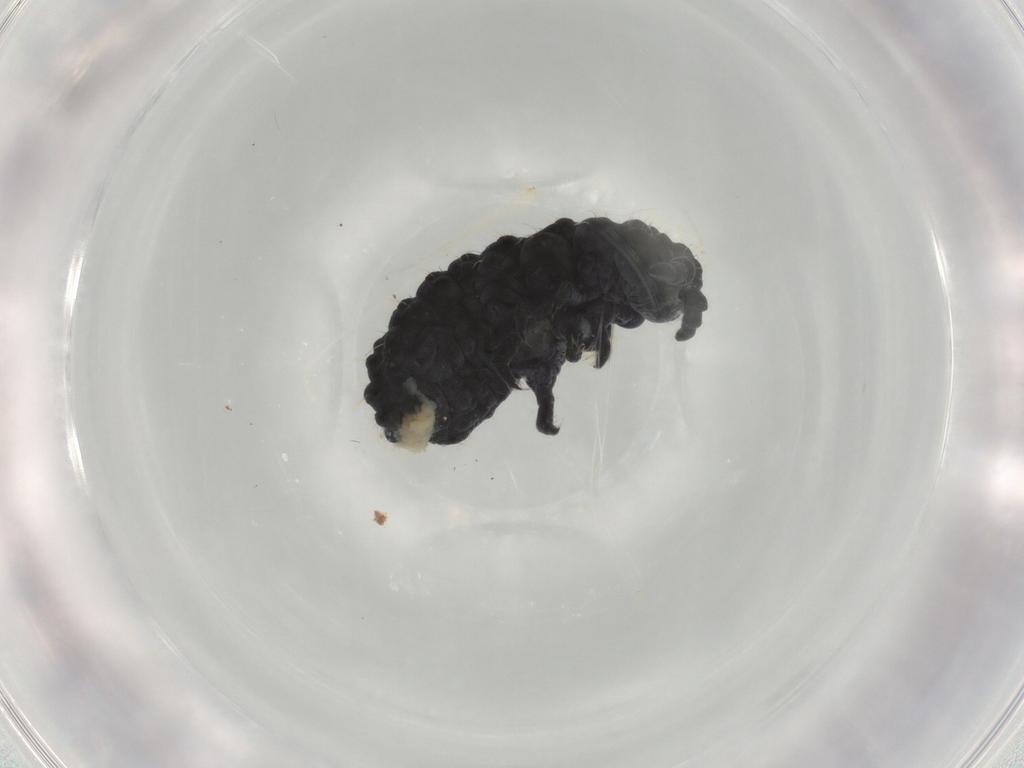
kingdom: Animalia
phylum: Arthropoda
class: Collembola
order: Poduromorpha
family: Neanuridae
